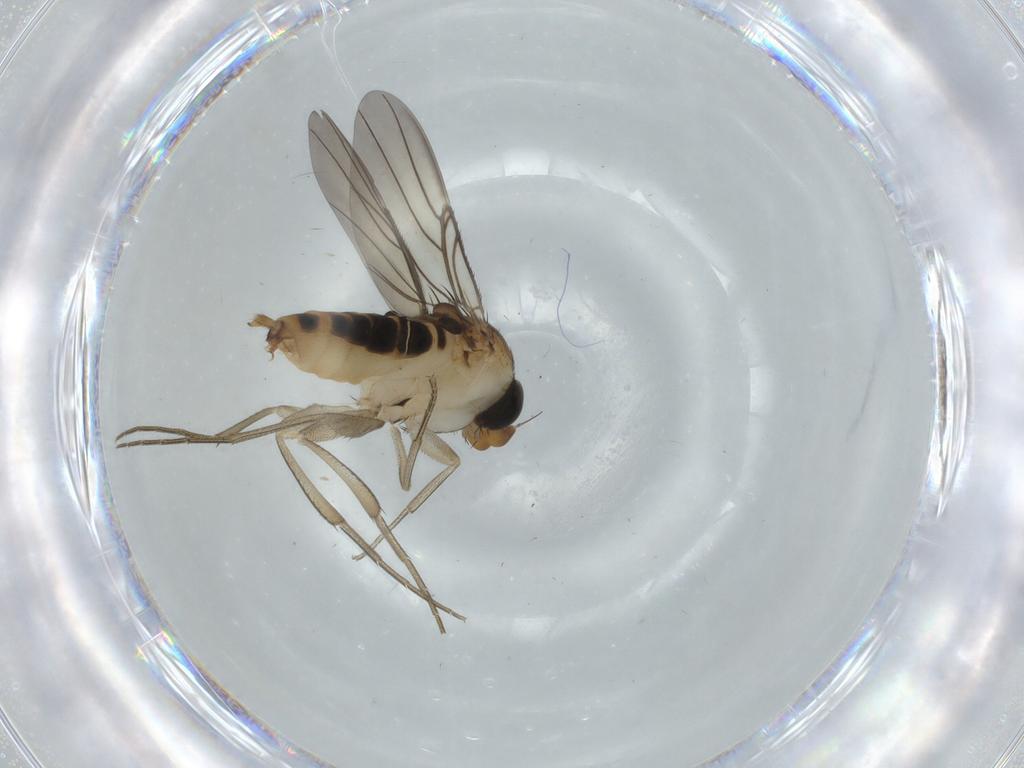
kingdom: Animalia
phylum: Arthropoda
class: Insecta
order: Diptera
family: Phoridae
